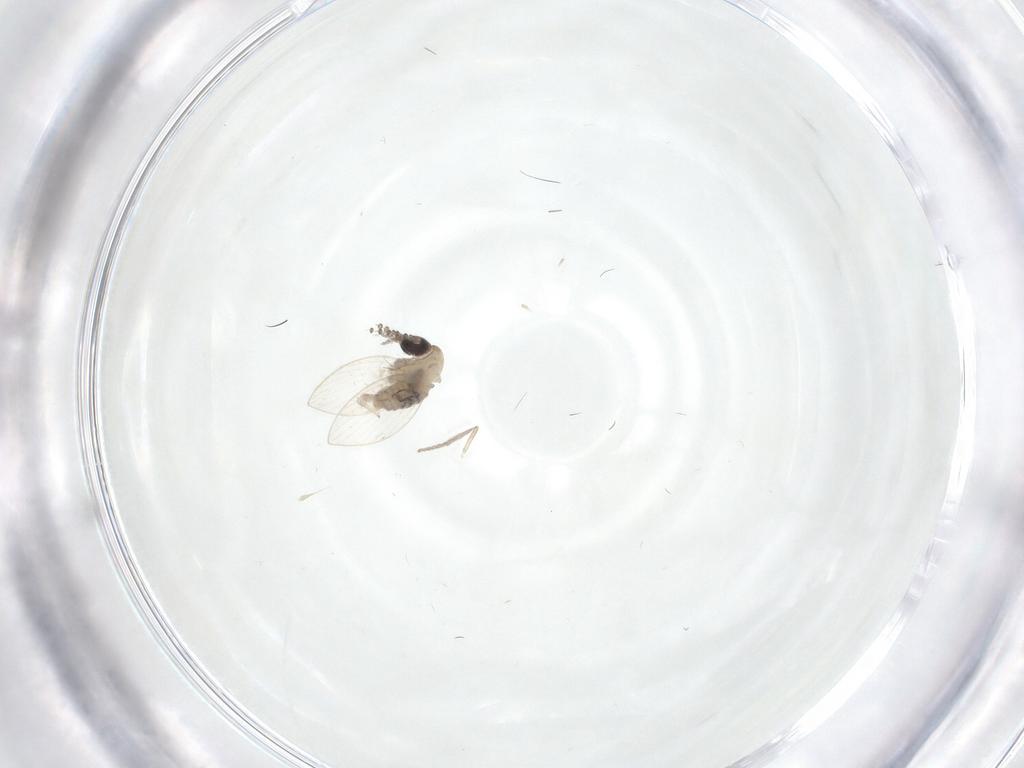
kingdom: Animalia
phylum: Arthropoda
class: Insecta
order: Diptera
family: Psychodidae
